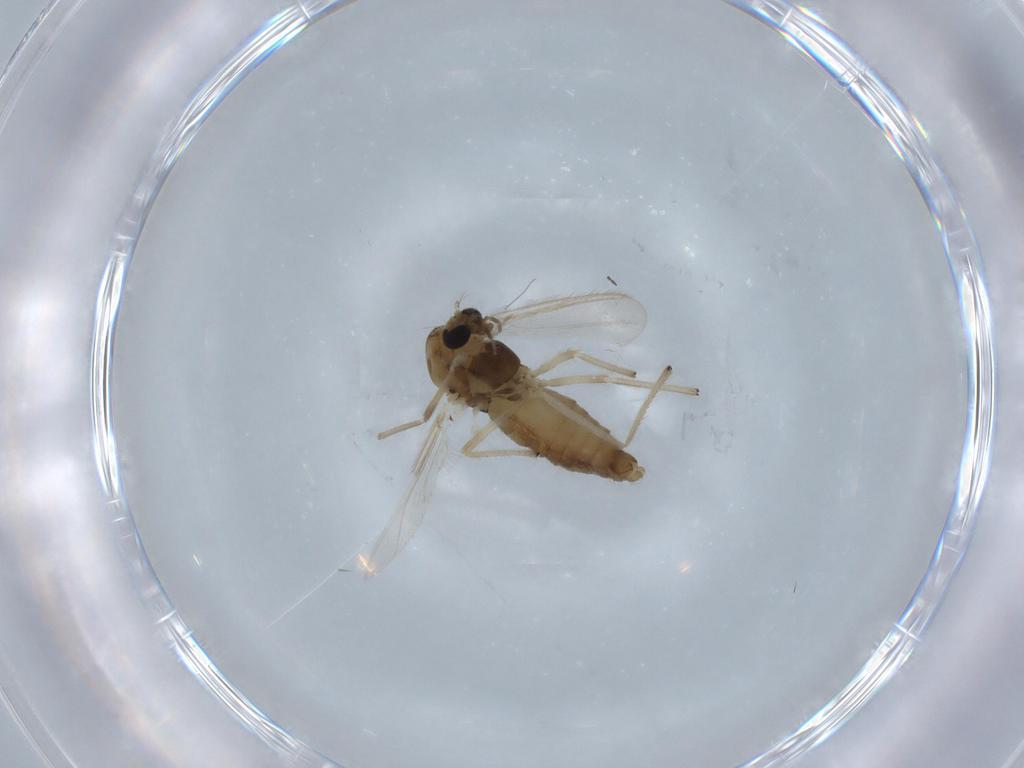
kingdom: Animalia
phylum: Arthropoda
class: Insecta
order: Diptera
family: Chironomidae
